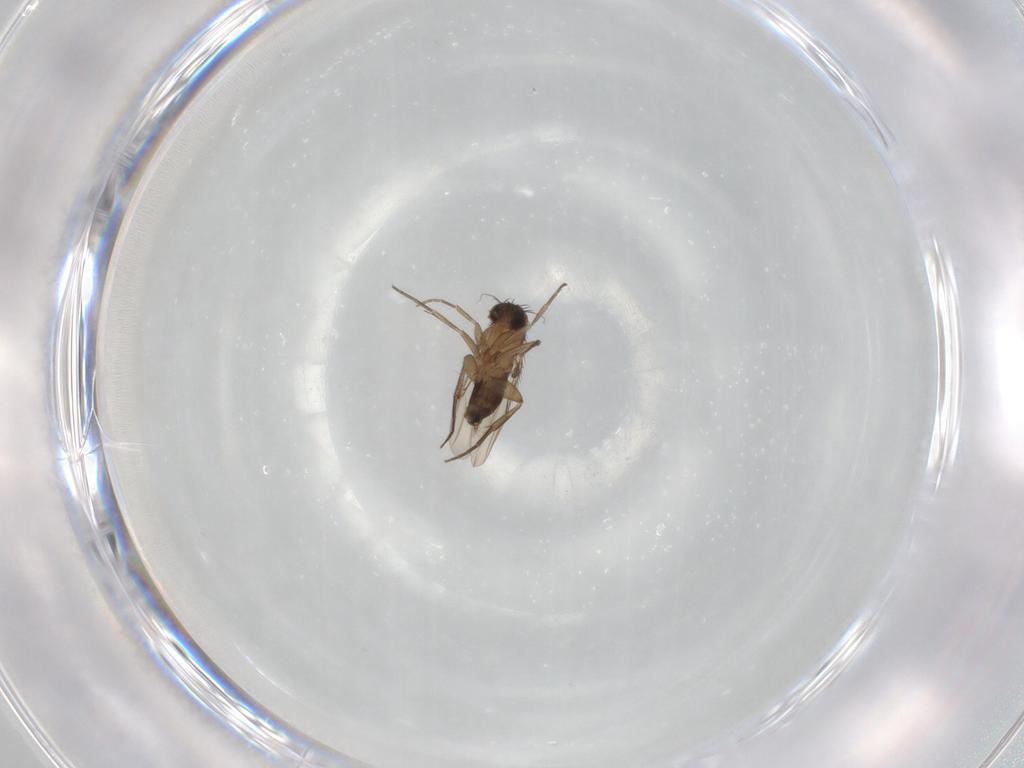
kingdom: Animalia
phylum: Arthropoda
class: Insecta
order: Diptera
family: Phoridae
